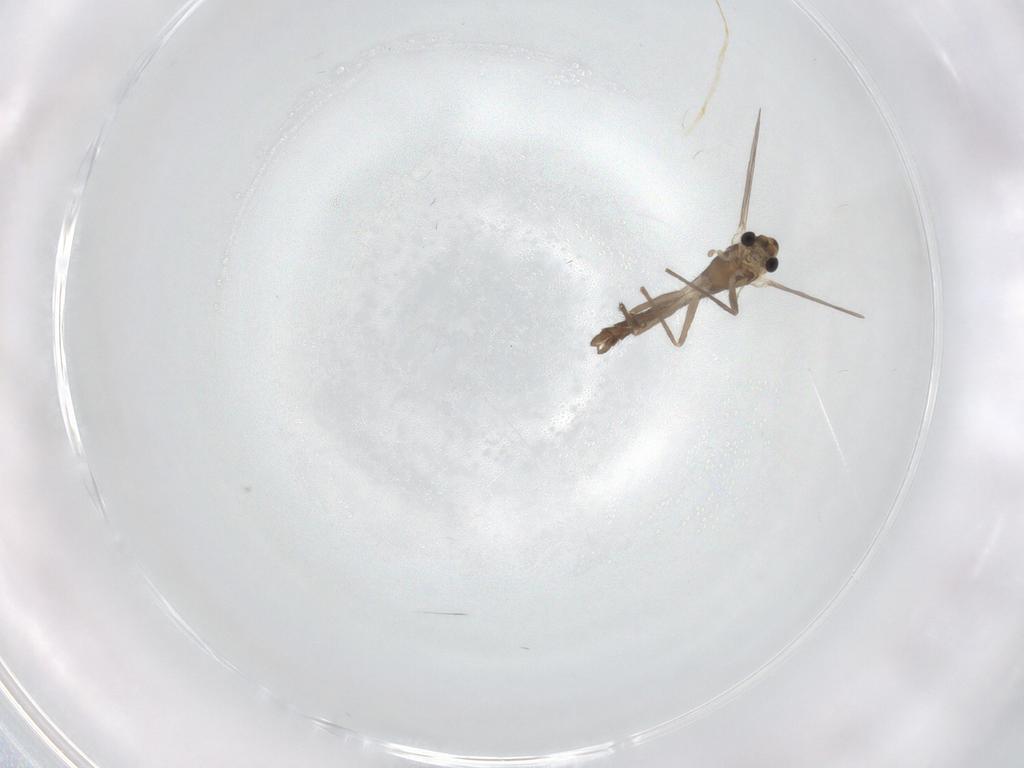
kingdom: Animalia
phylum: Arthropoda
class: Insecta
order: Diptera
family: Chironomidae
